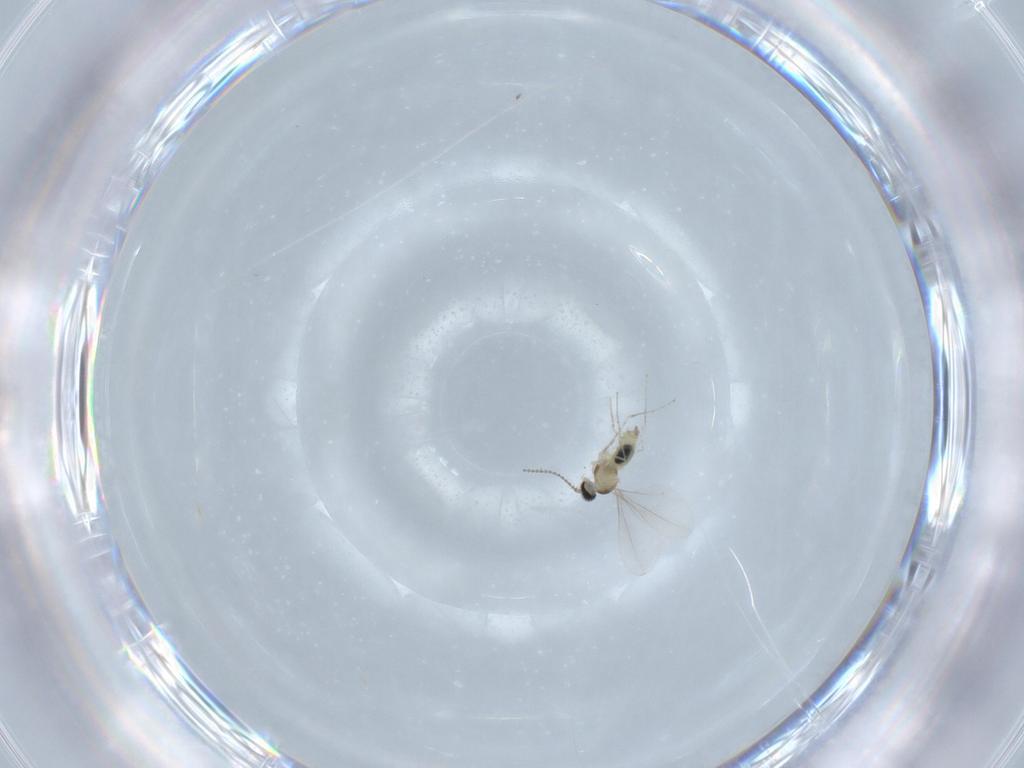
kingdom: Animalia
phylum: Arthropoda
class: Insecta
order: Diptera
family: Cecidomyiidae
